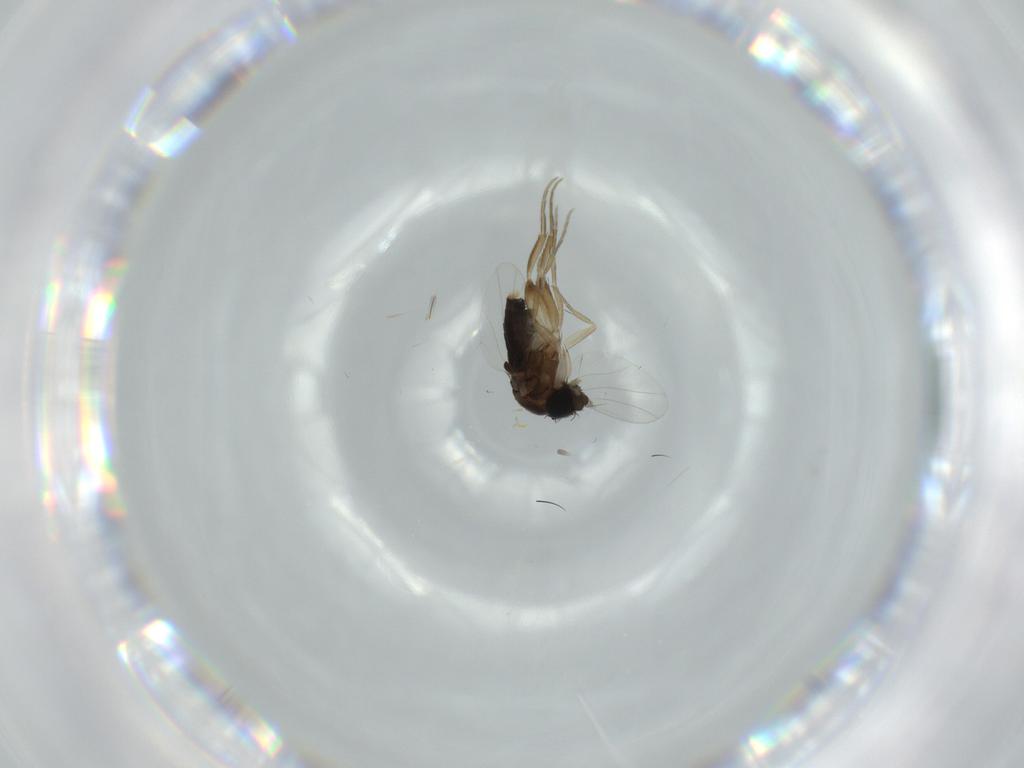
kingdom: Animalia
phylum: Arthropoda
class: Insecta
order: Diptera
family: Phoridae
